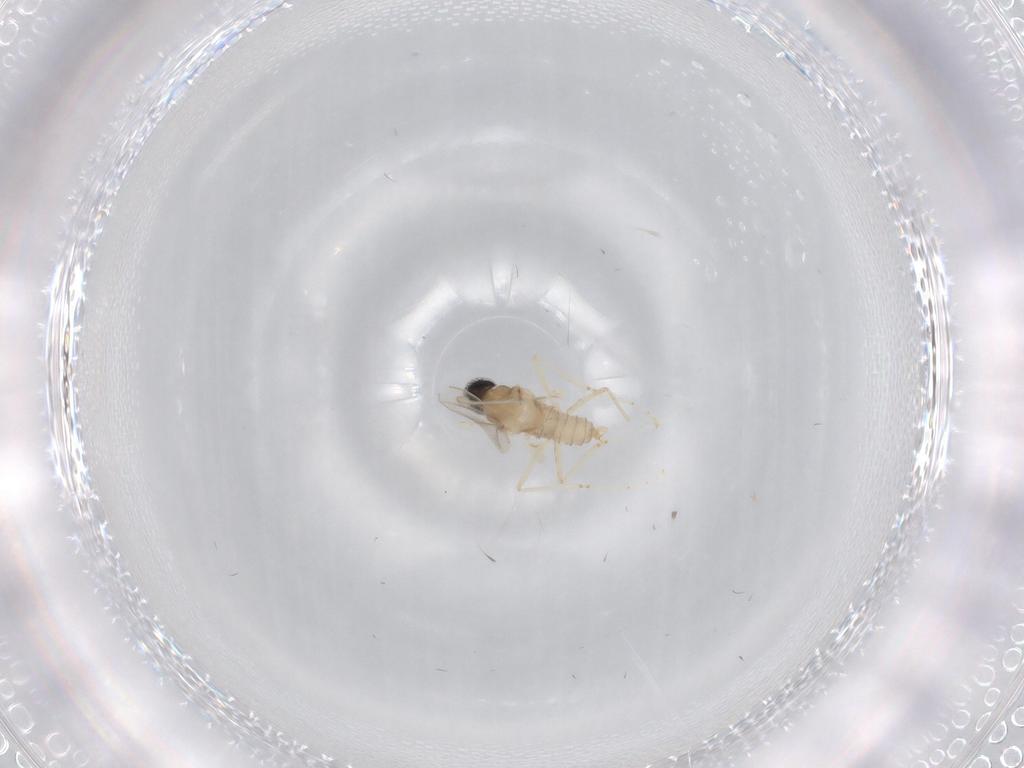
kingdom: Animalia
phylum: Arthropoda
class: Insecta
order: Diptera
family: Cecidomyiidae
